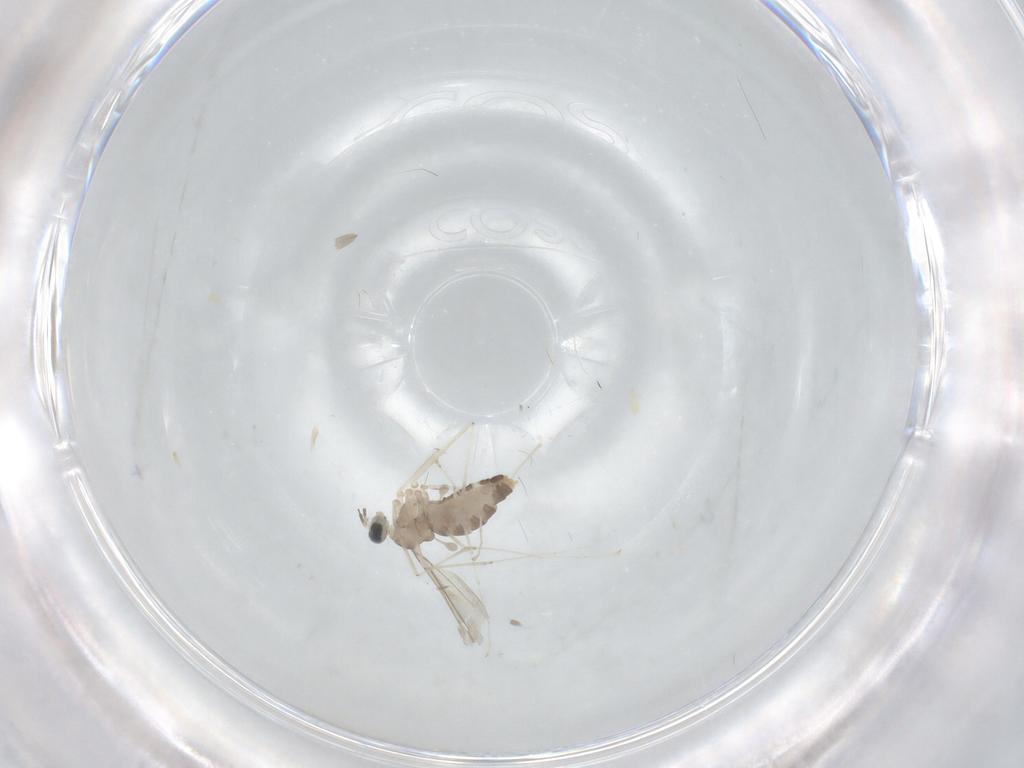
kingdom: Animalia
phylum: Arthropoda
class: Insecta
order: Diptera
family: Cecidomyiidae
